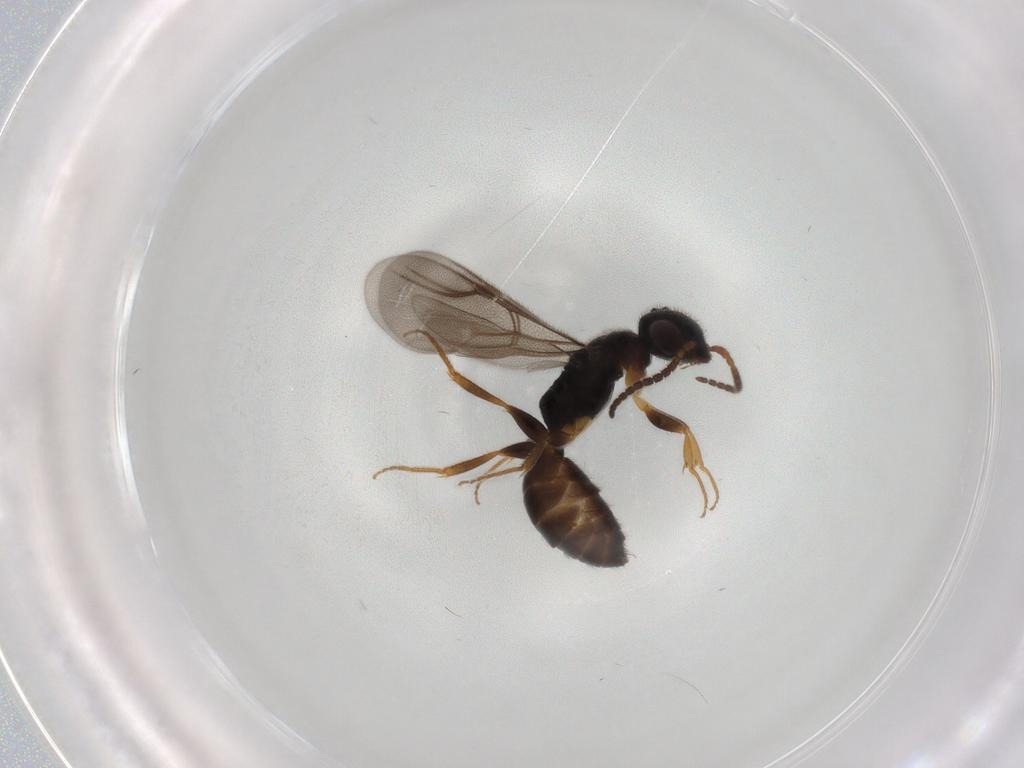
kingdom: Animalia
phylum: Arthropoda
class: Insecta
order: Hymenoptera
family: Bethylidae
